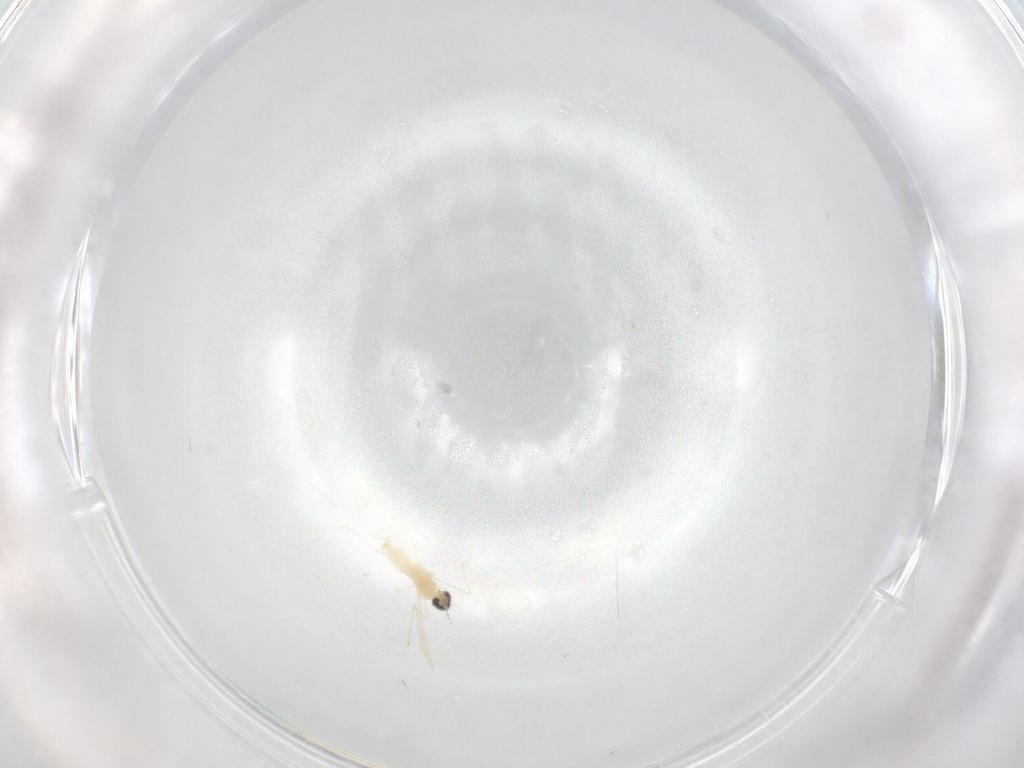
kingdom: Animalia
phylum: Arthropoda
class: Insecta
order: Diptera
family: Cecidomyiidae
